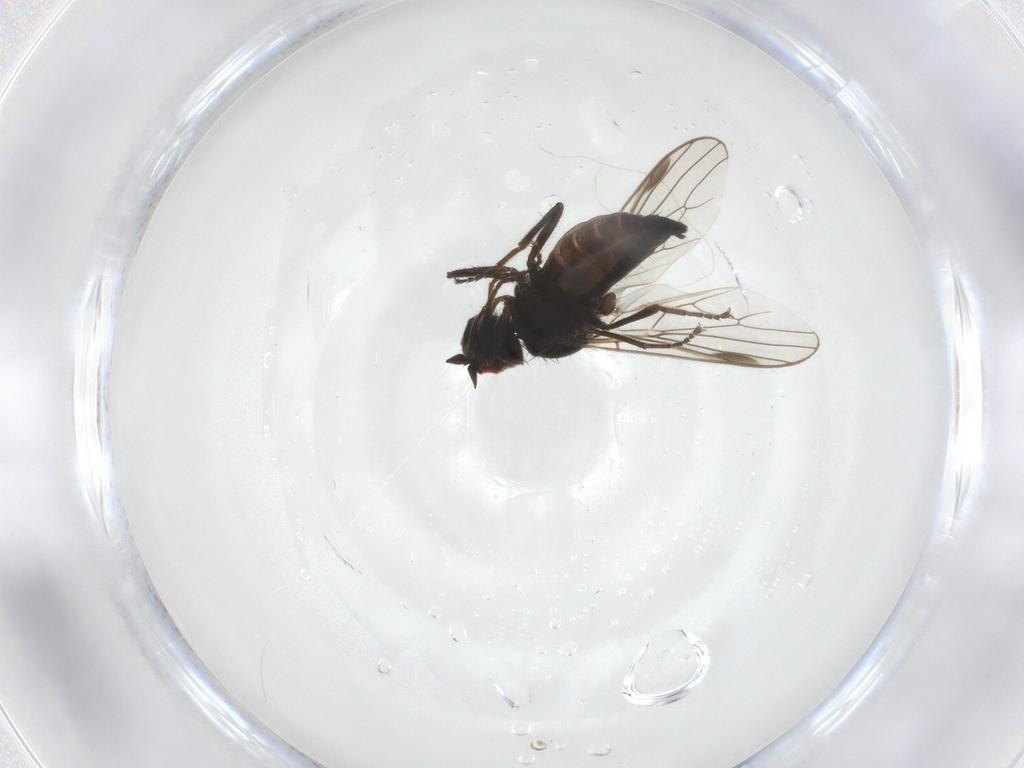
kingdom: Animalia
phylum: Arthropoda
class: Insecta
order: Diptera
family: Hybotidae
